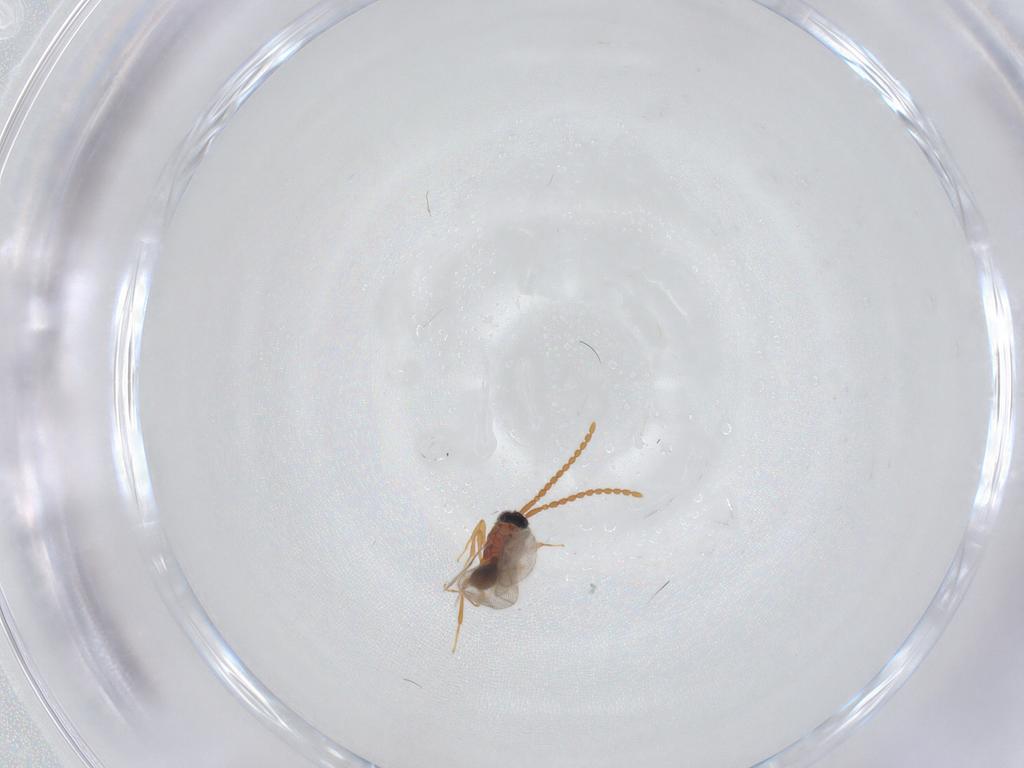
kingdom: Animalia
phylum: Arthropoda
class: Insecta
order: Hymenoptera
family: Diapriidae
